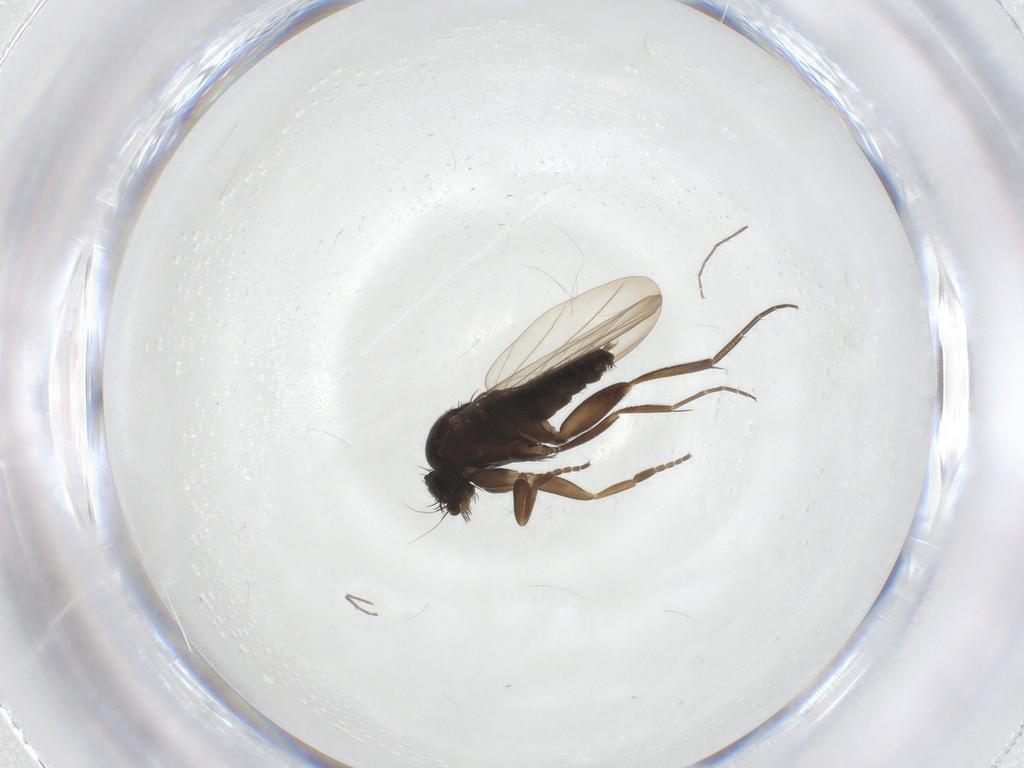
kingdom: Animalia
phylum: Arthropoda
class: Insecta
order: Diptera
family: Phoridae
